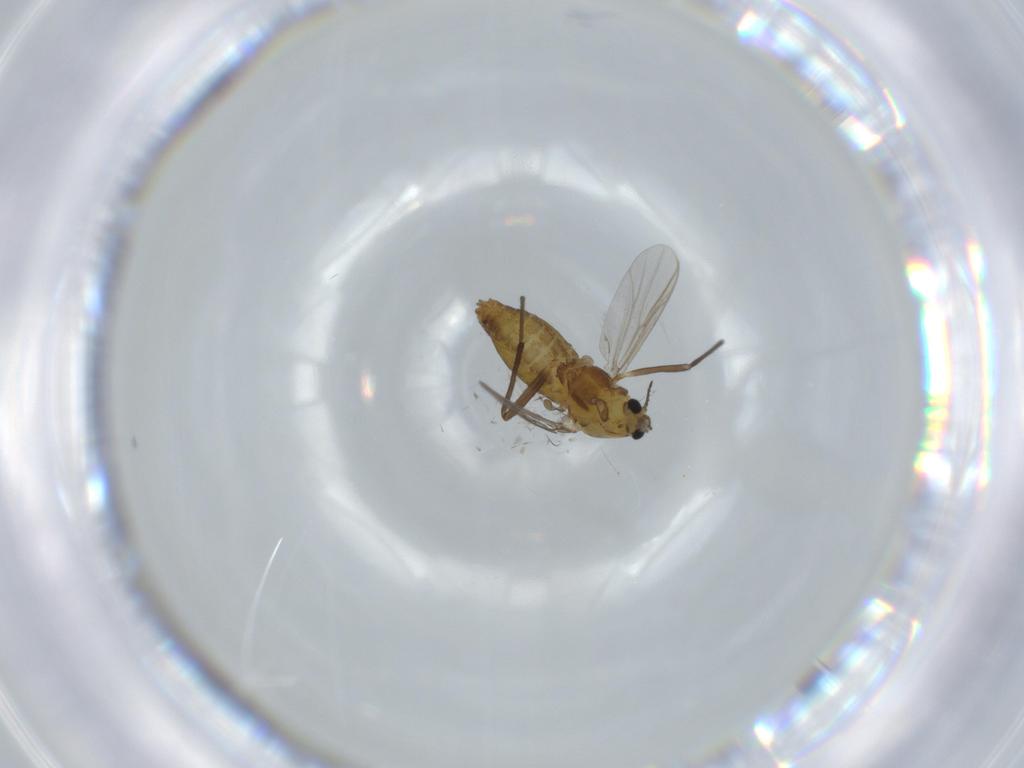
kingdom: Animalia
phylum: Arthropoda
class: Insecta
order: Diptera
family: Chironomidae
